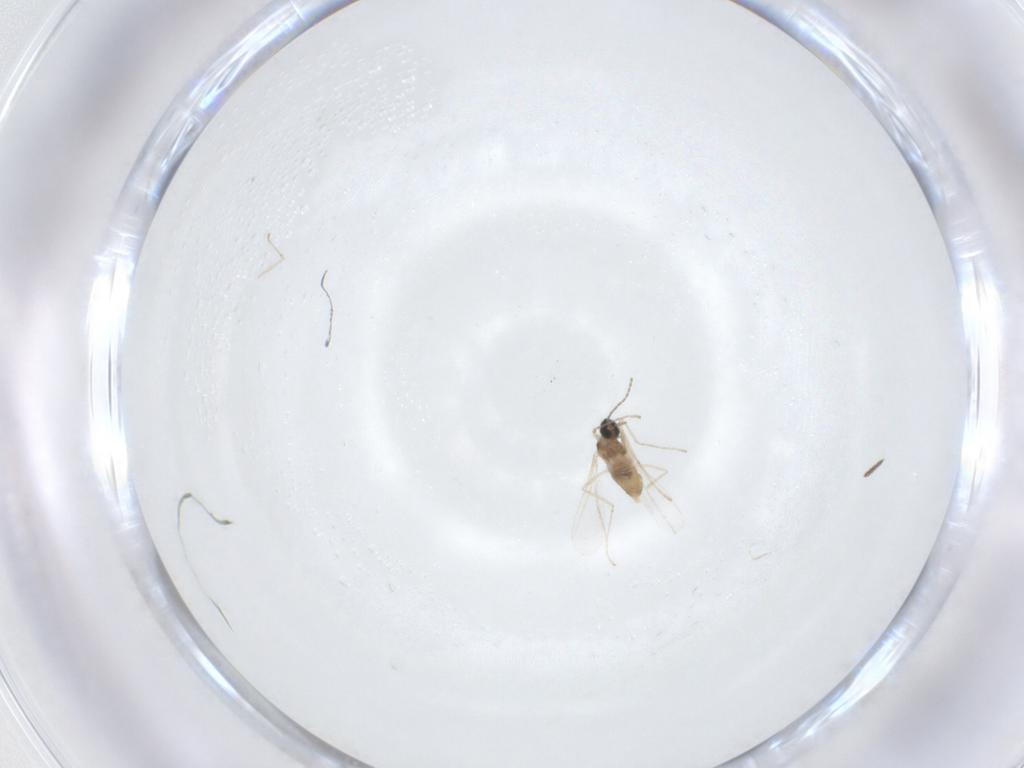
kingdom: Animalia
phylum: Arthropoda
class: Insecta
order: Diptera
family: Cecidomyiidae
